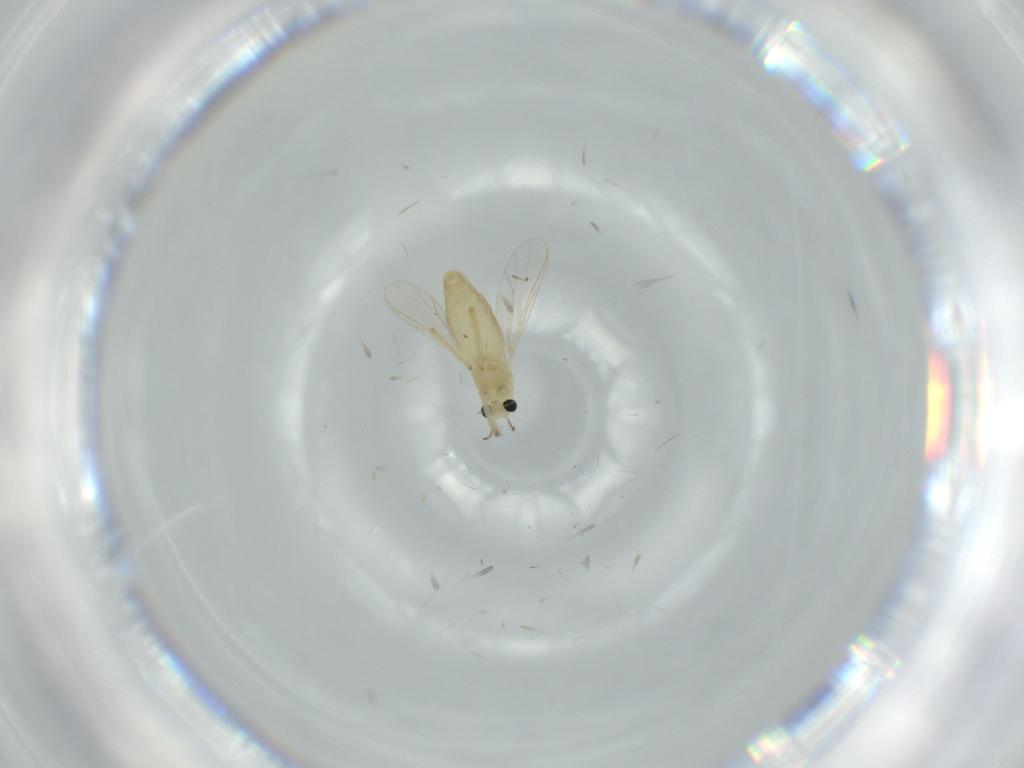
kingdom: Animalia
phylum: Arthropoda
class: Insecta
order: Diptera
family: Chironomidae
